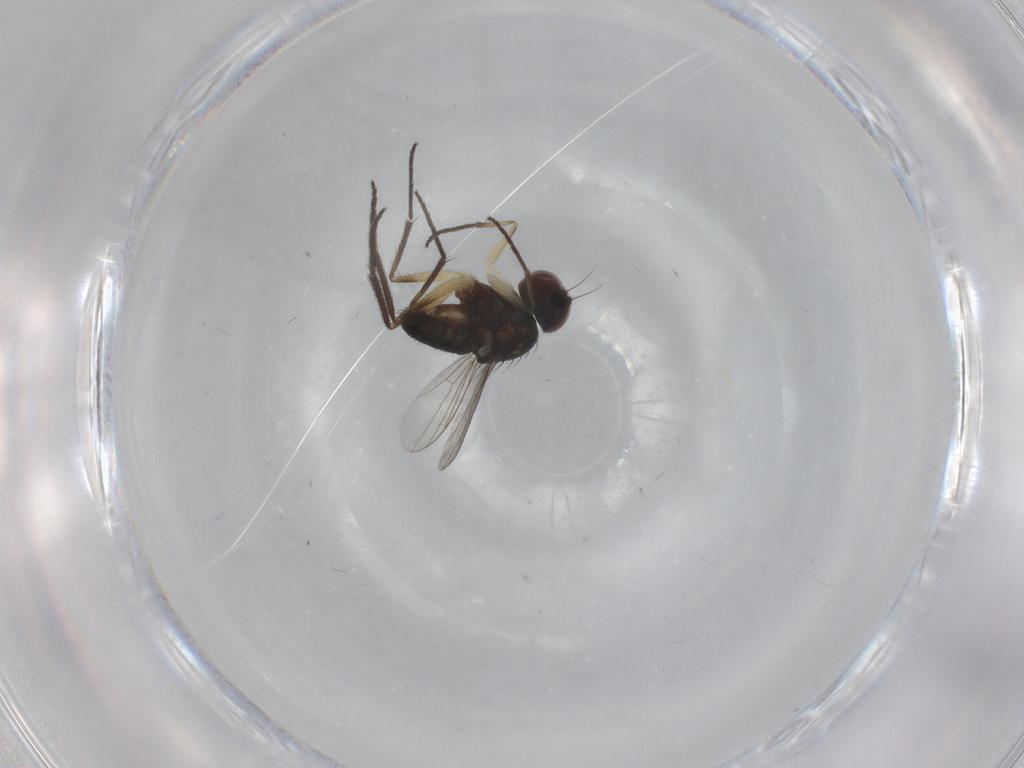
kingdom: Animalia
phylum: Arthropoda
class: Insecta
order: Diptera
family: Dolichopodidae
